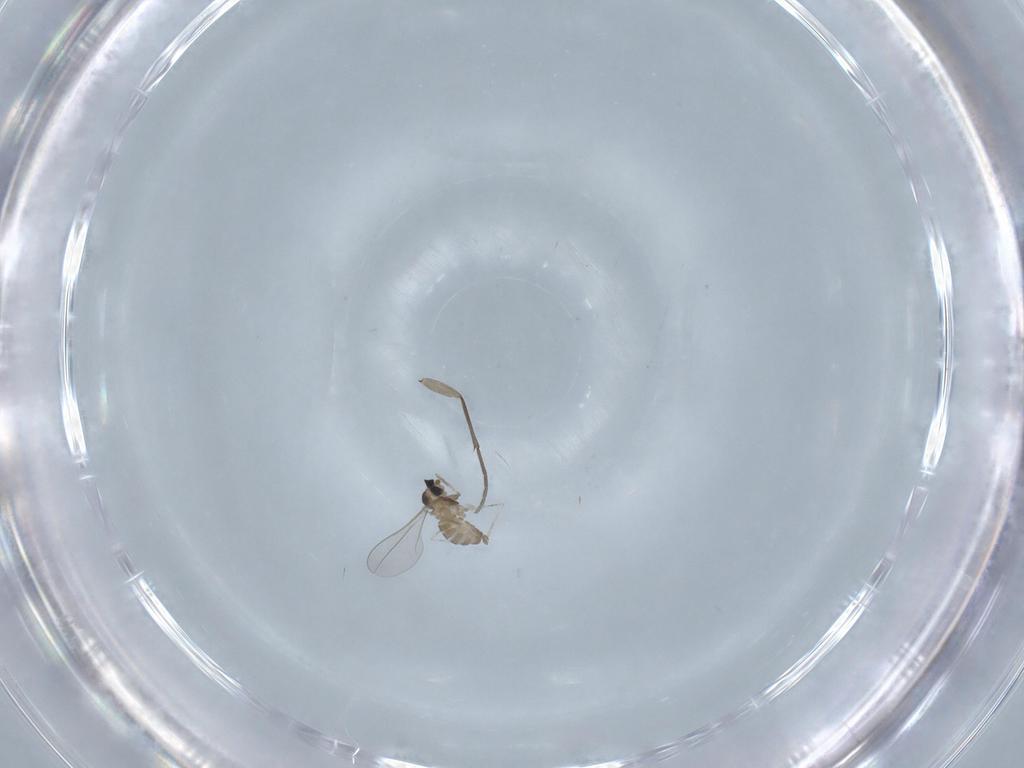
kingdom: Animalia
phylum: Arthropoda
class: Insecta
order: Diptera
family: Sciaridae
